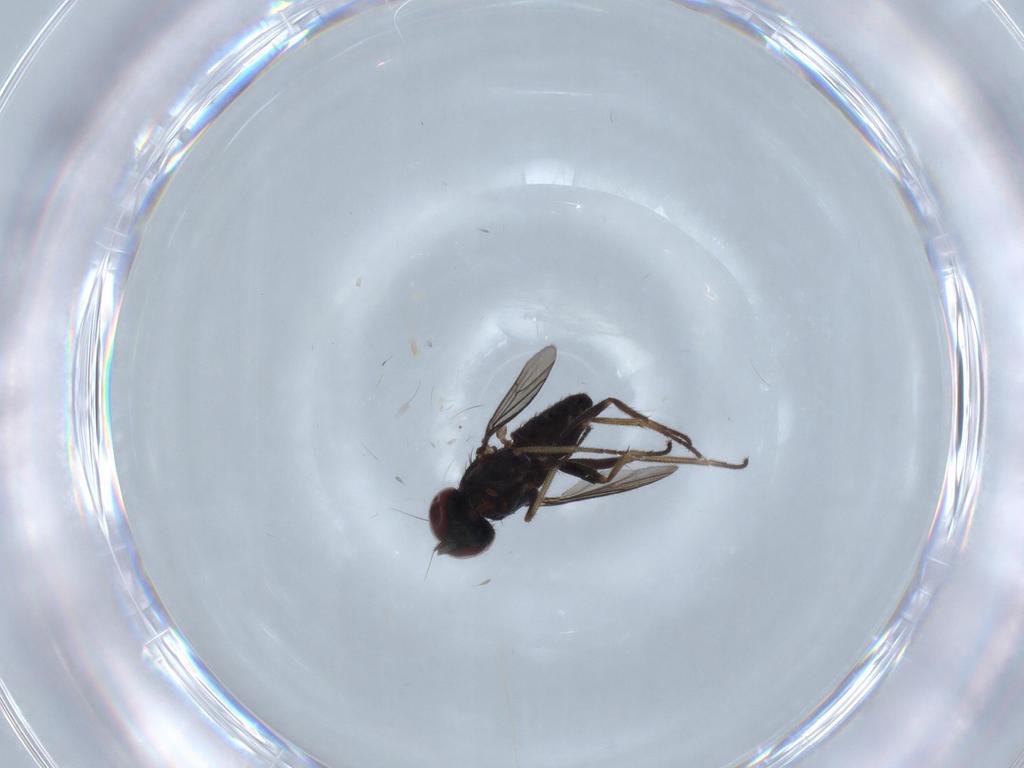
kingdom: Animalia
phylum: Arthropoda
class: Insecta
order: Diptera
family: Dolichopodidae
